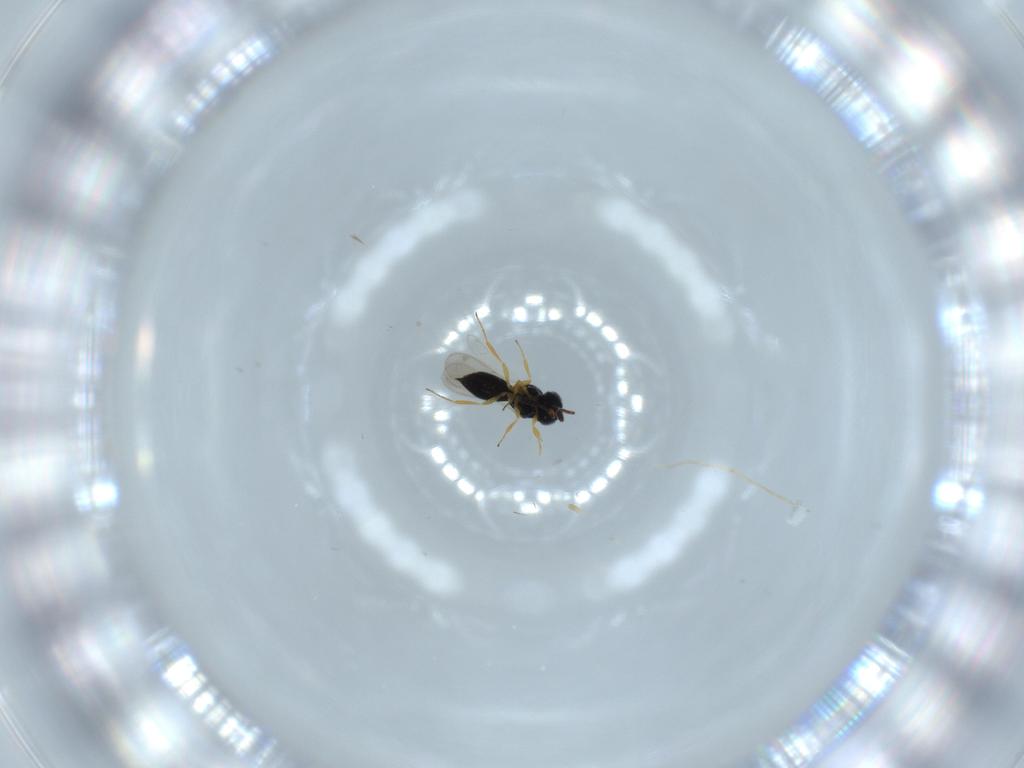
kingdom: Animalia
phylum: Arthropoda
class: Insecta
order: Hymenoptera
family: Scelionidae
